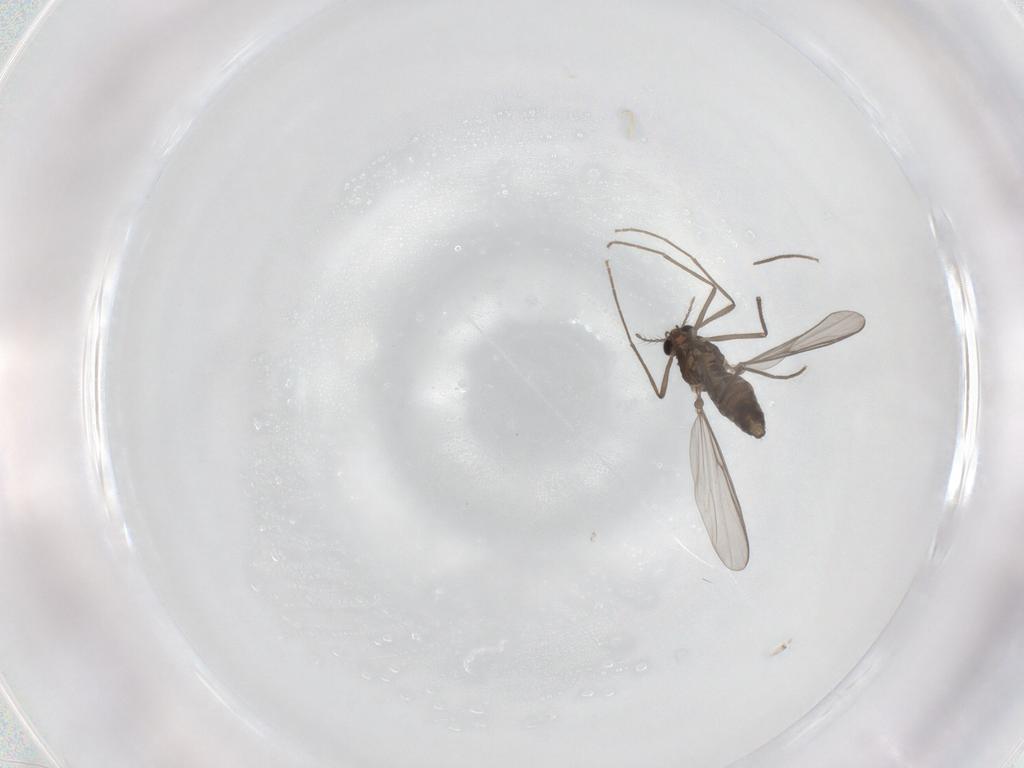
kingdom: Animalia
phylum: Arthropoda
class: Insecta
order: Diptera
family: Chironomidae
